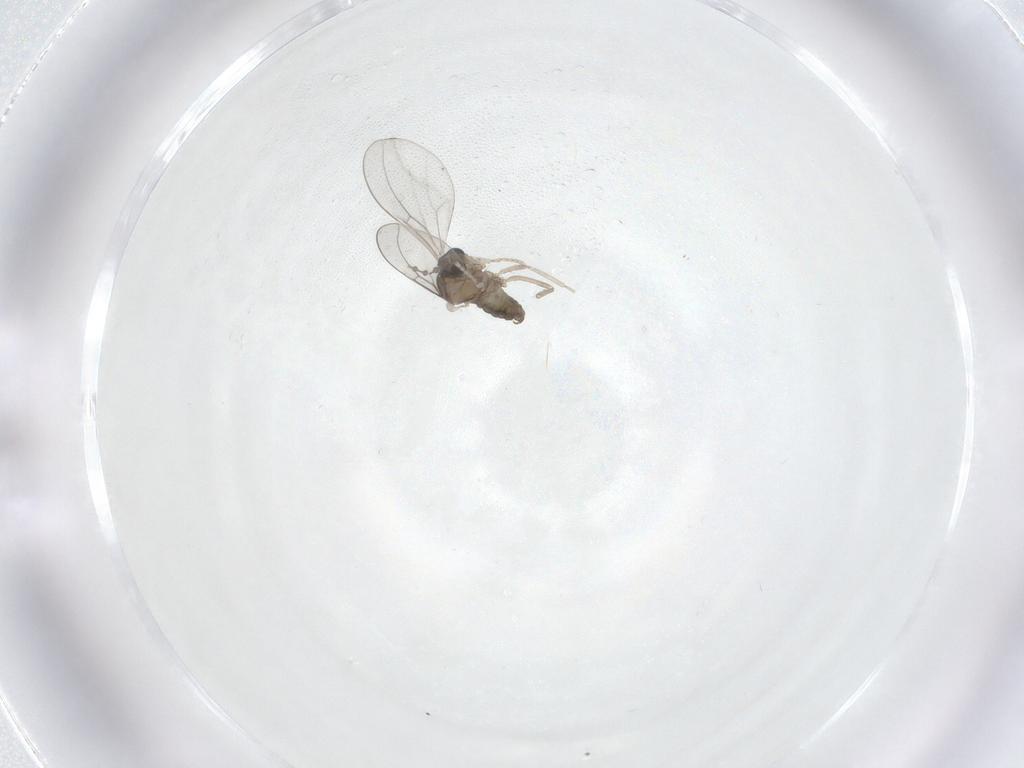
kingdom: Animalia
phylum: Arthropoda
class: Insecta
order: Diptera
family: Cecidomyiidae
